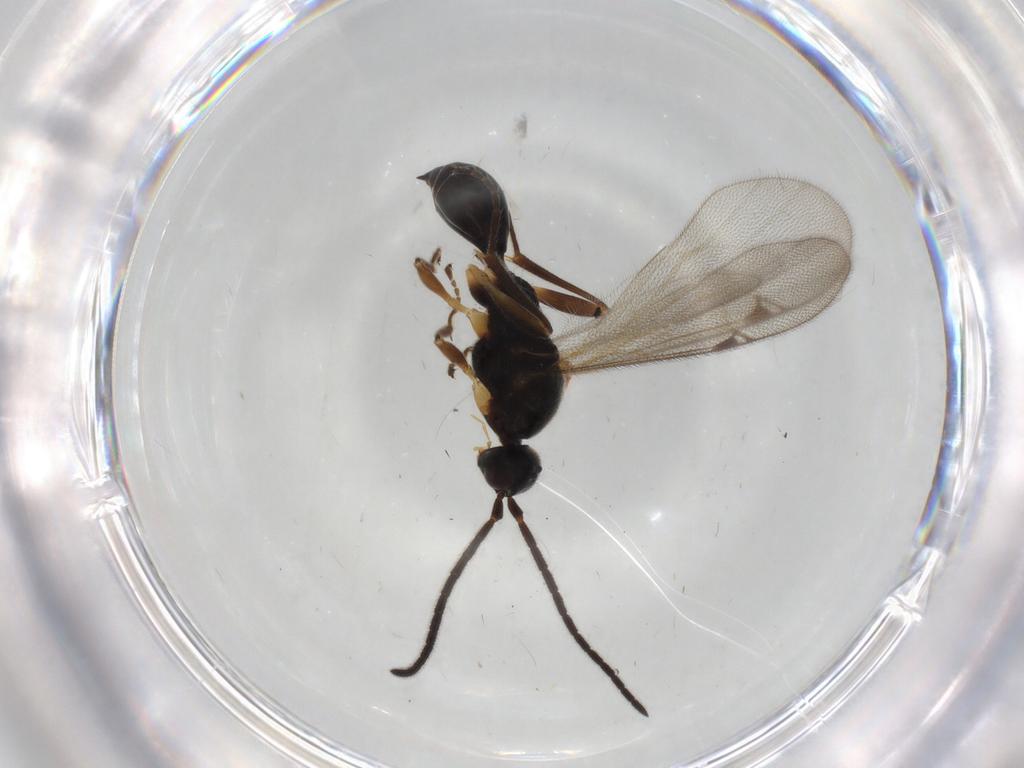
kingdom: Animalia
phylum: Arthropoda
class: Insecta
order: Hymenoptera
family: Proctotrupidae
